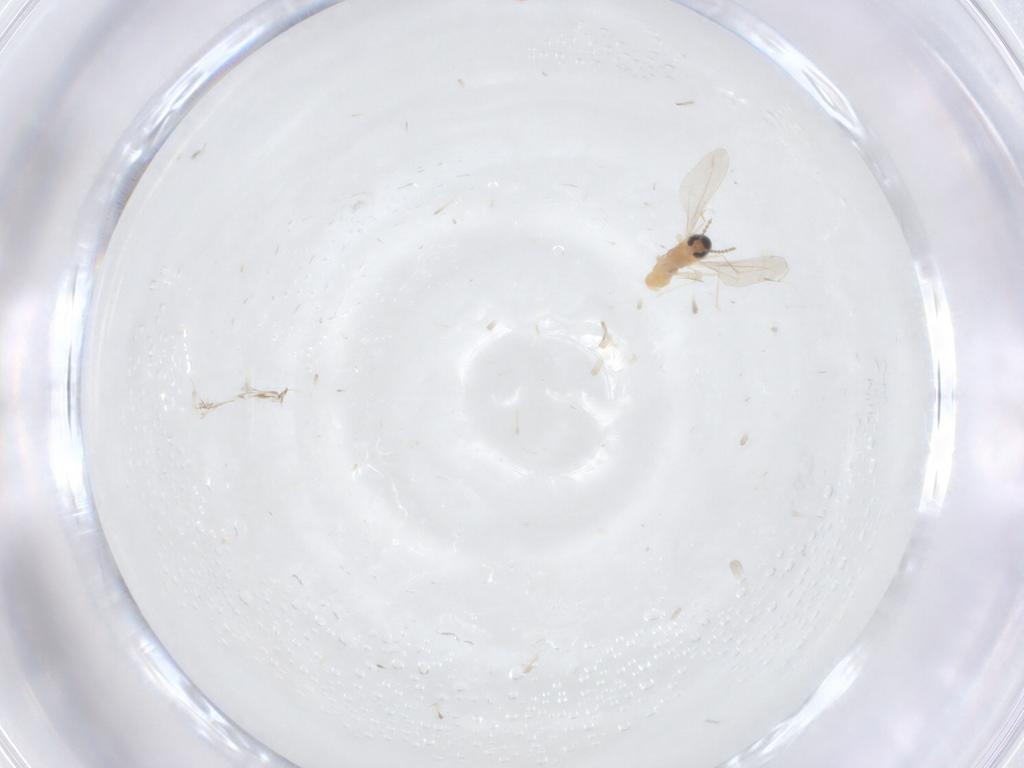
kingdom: Animalia
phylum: Arthropoda
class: Insecta
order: Diptera
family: Cecidomyiidae
